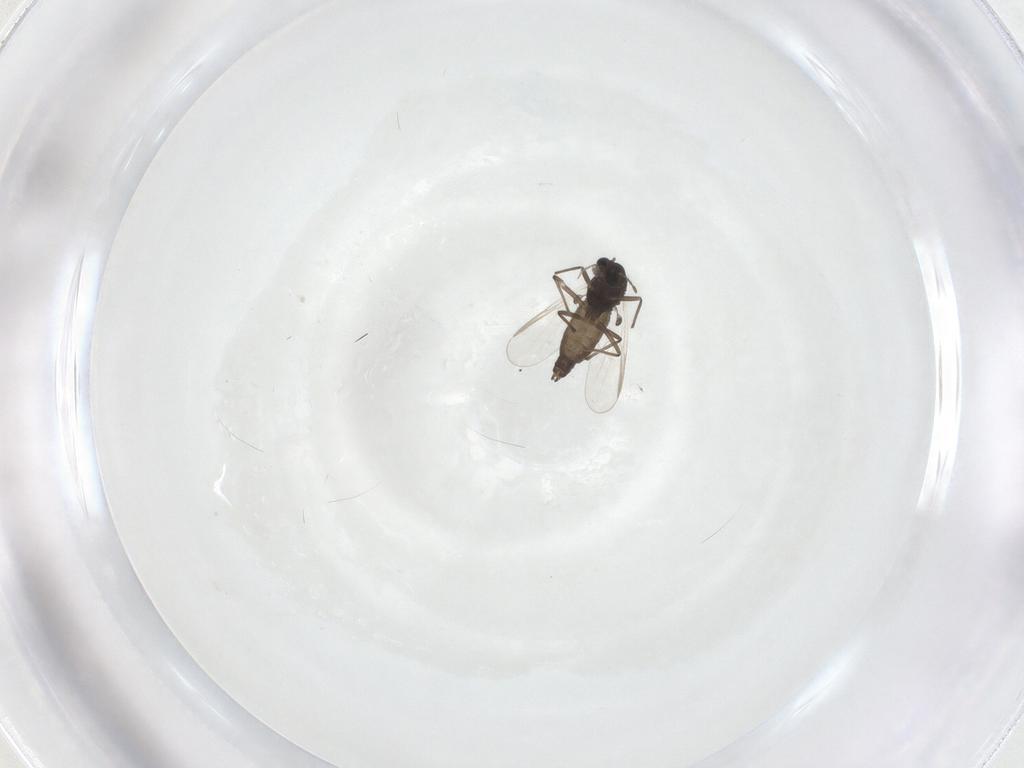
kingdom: Animalia
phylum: Arthropoda
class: Insecta
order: Diptera
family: Chironomidae
